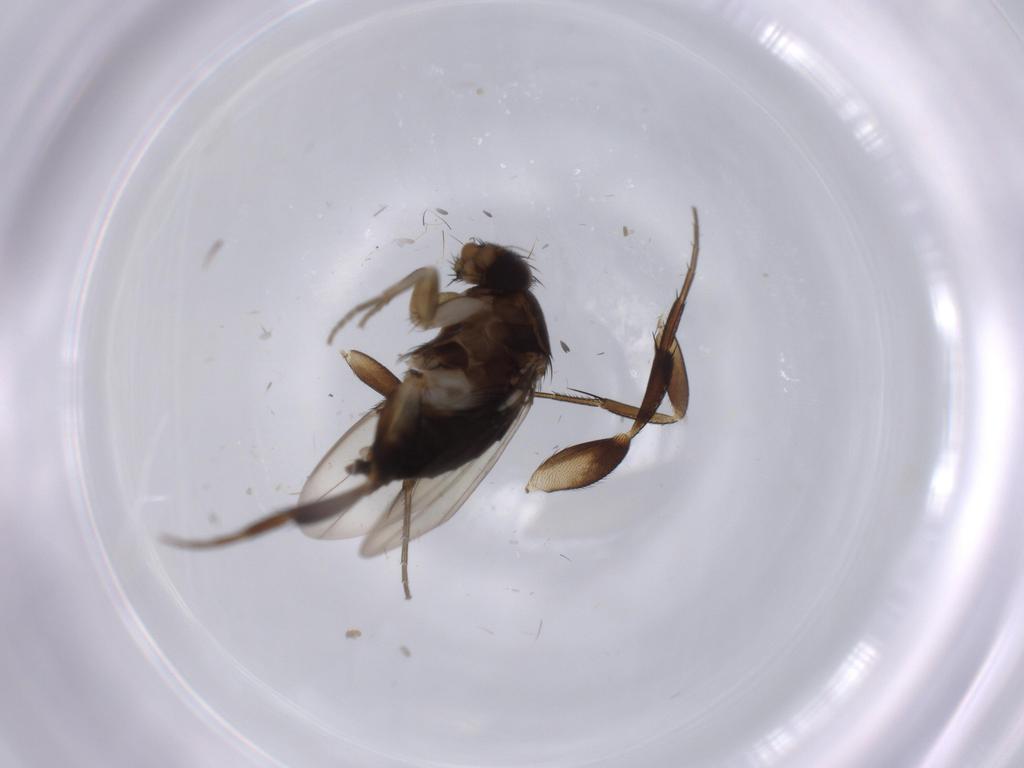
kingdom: Animalia
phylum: Arthropoda
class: Insecta
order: Diptera
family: Phoridae
